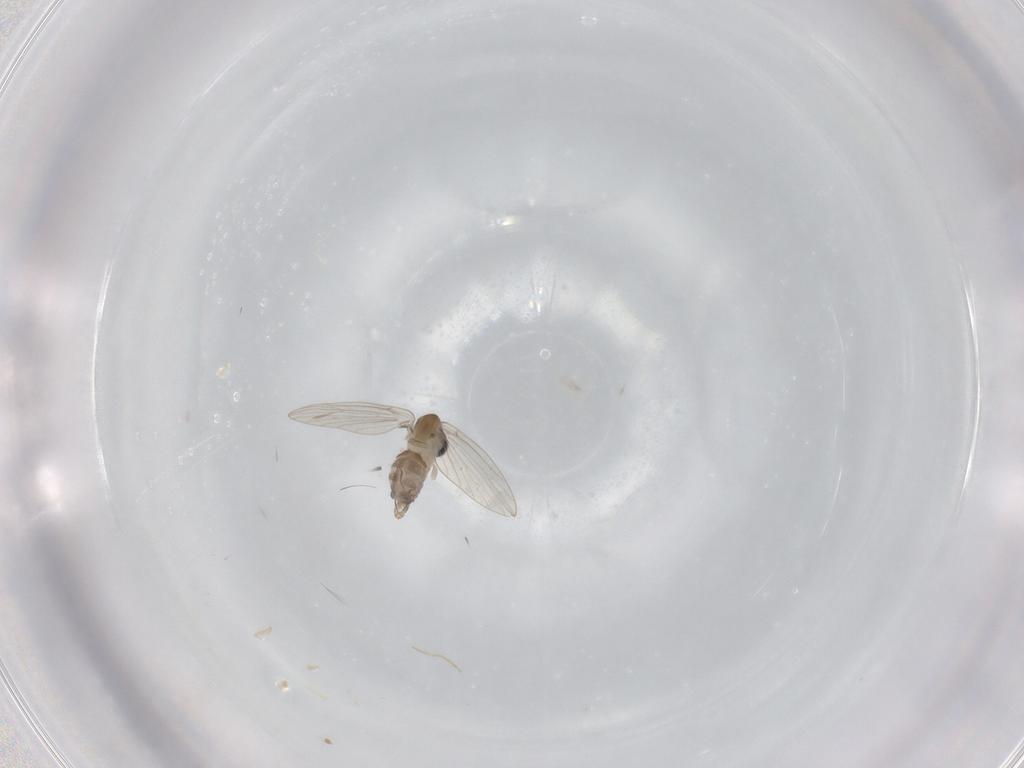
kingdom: Animalia
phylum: Arthropoda
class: Insecta
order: Diptera
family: Psychodidae
